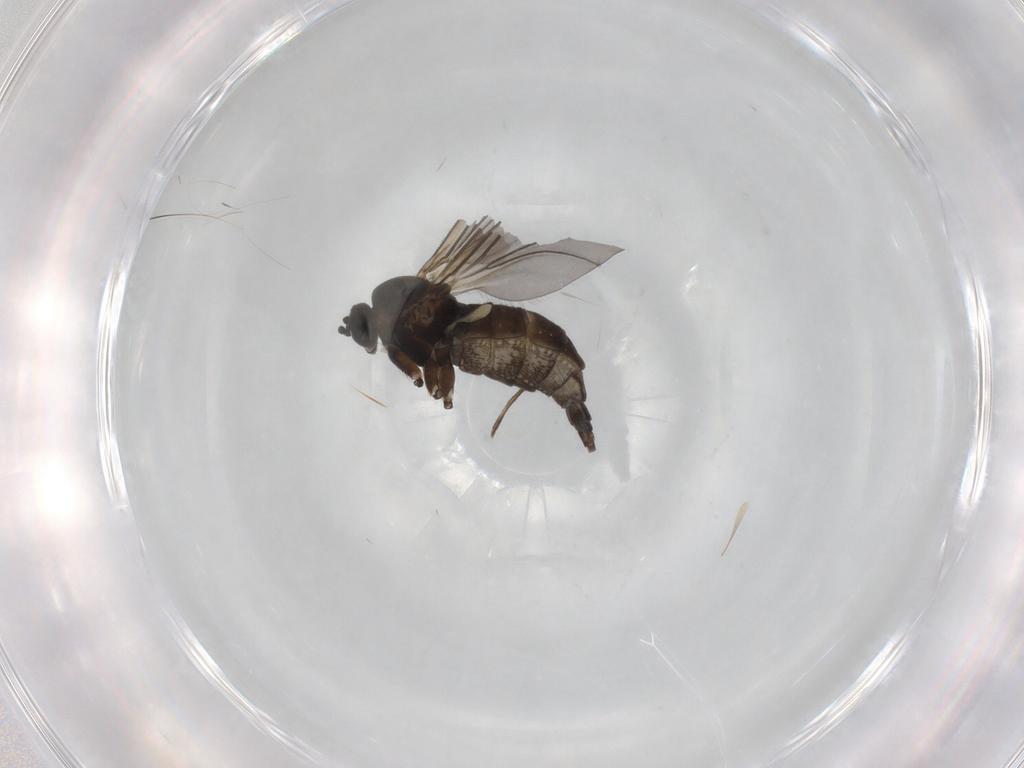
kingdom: Animalia
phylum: Arthropoda
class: Insecta
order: Diptera
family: Sciaridae
